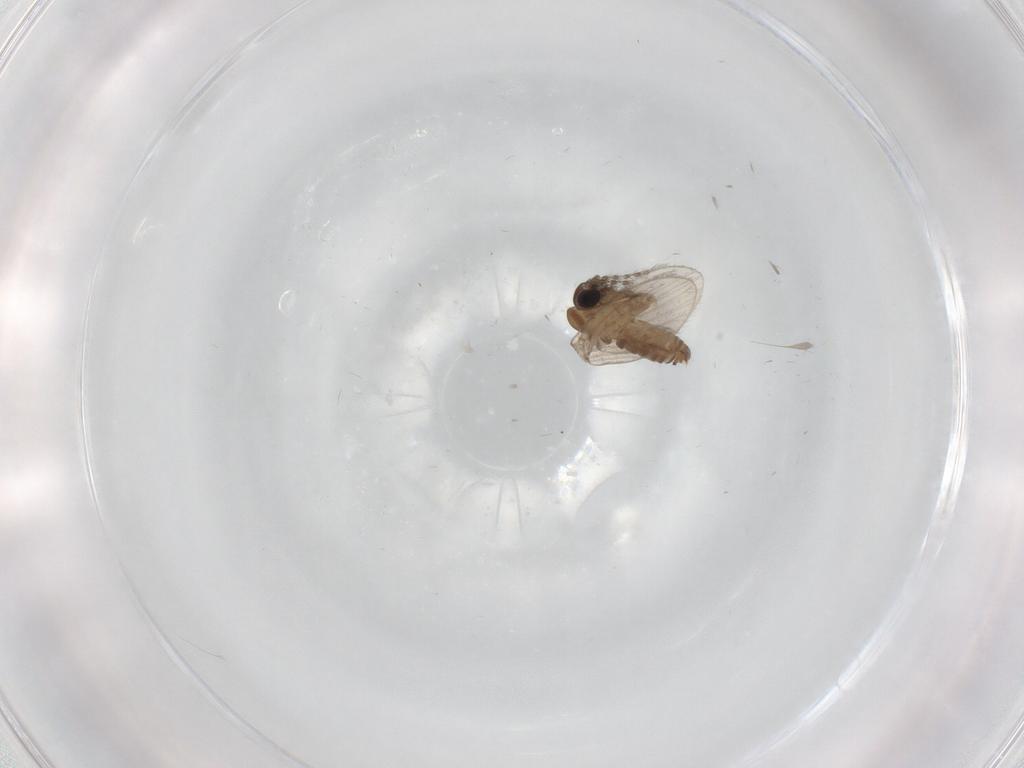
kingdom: Animalia
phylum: Arthropoda
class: Insecta
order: Diptera
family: Psychodidae
